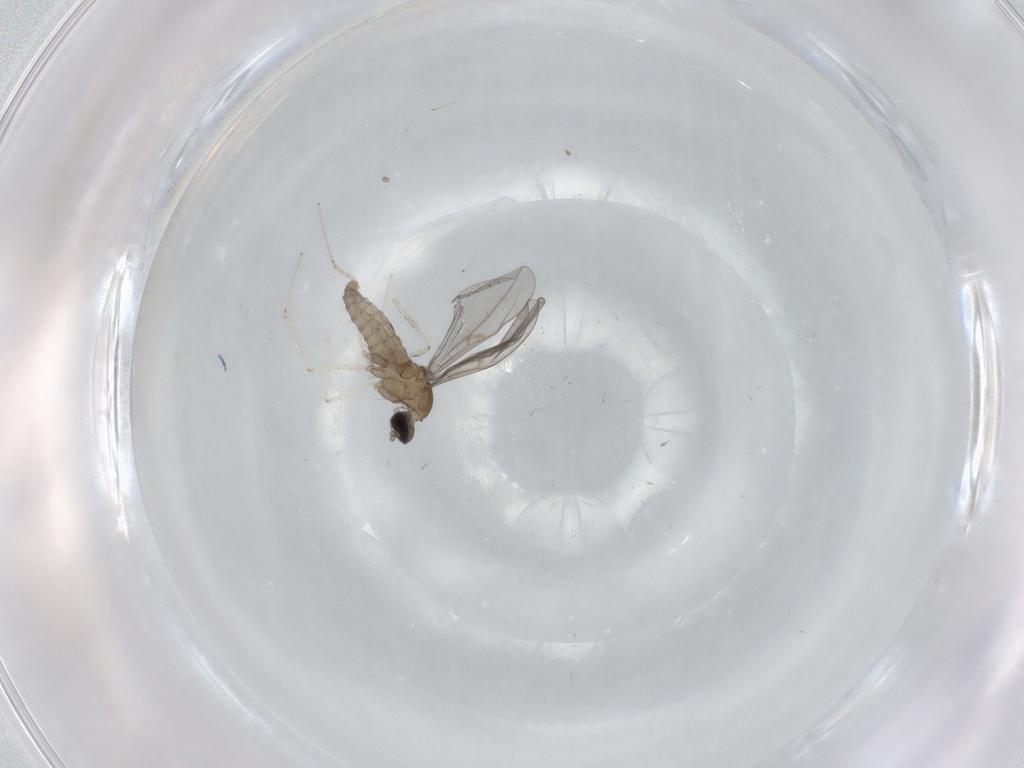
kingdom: Animalia
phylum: Arthropoda
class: Insecta
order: Diptera
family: Cecidomyiidae
